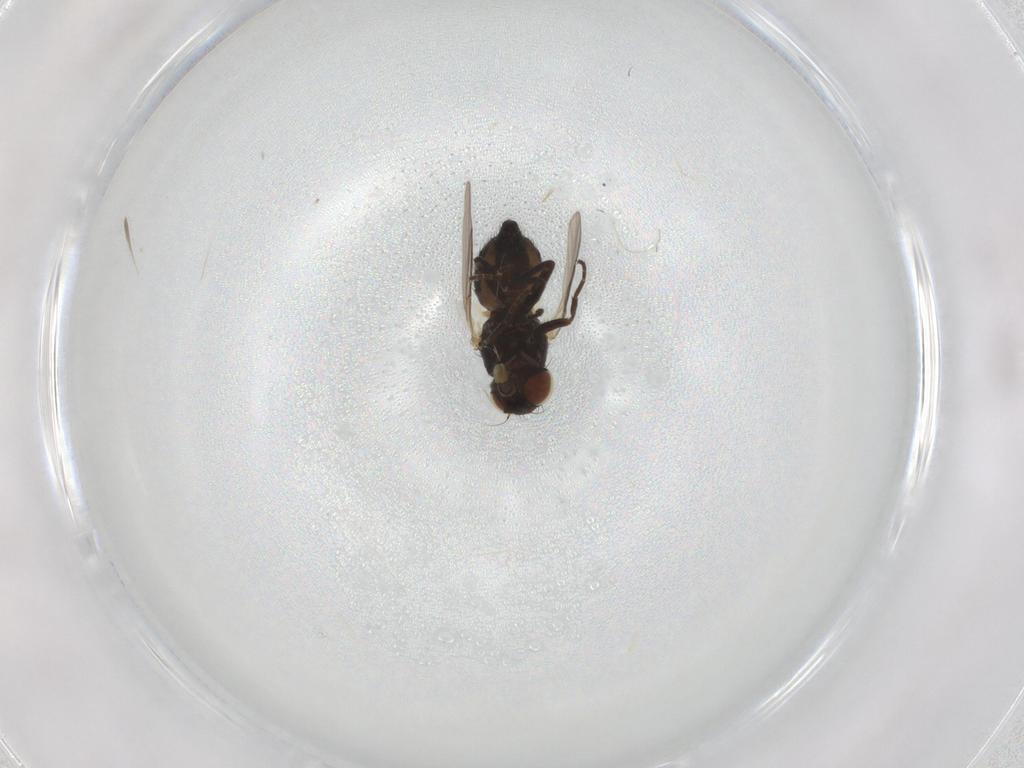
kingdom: Animalia
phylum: Arthropoda
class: Insecta
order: Diptera
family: Agromyzidae
